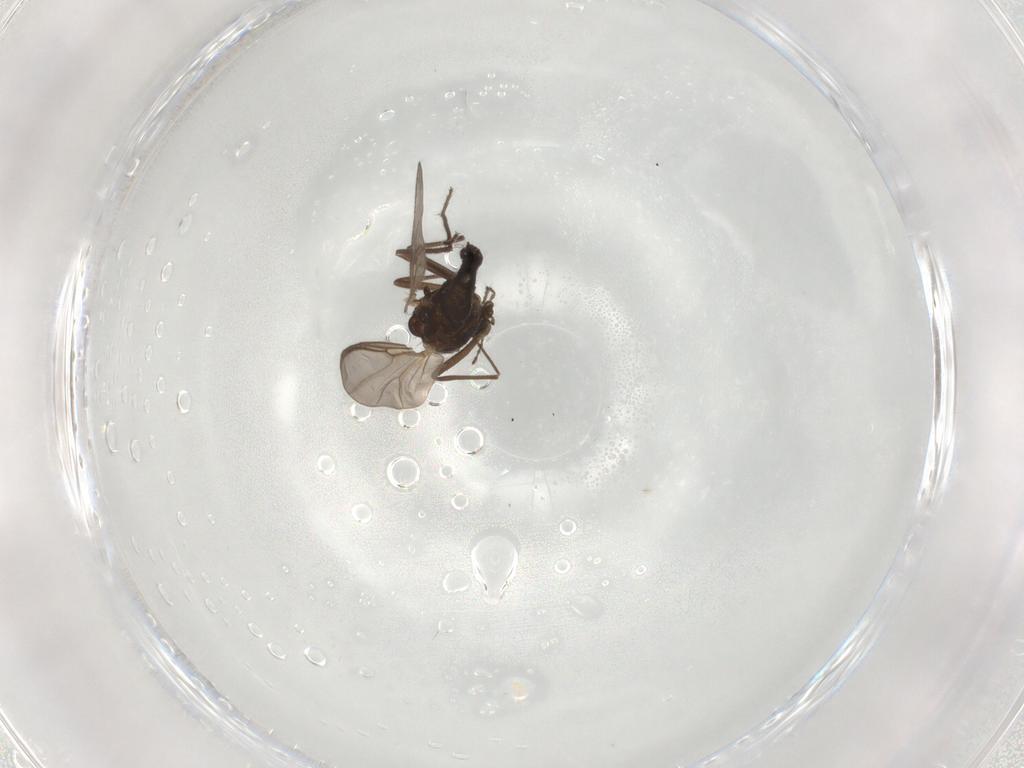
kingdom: Animalia
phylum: Arthropoda
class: Insecta
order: Diptera
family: Chironomidae
